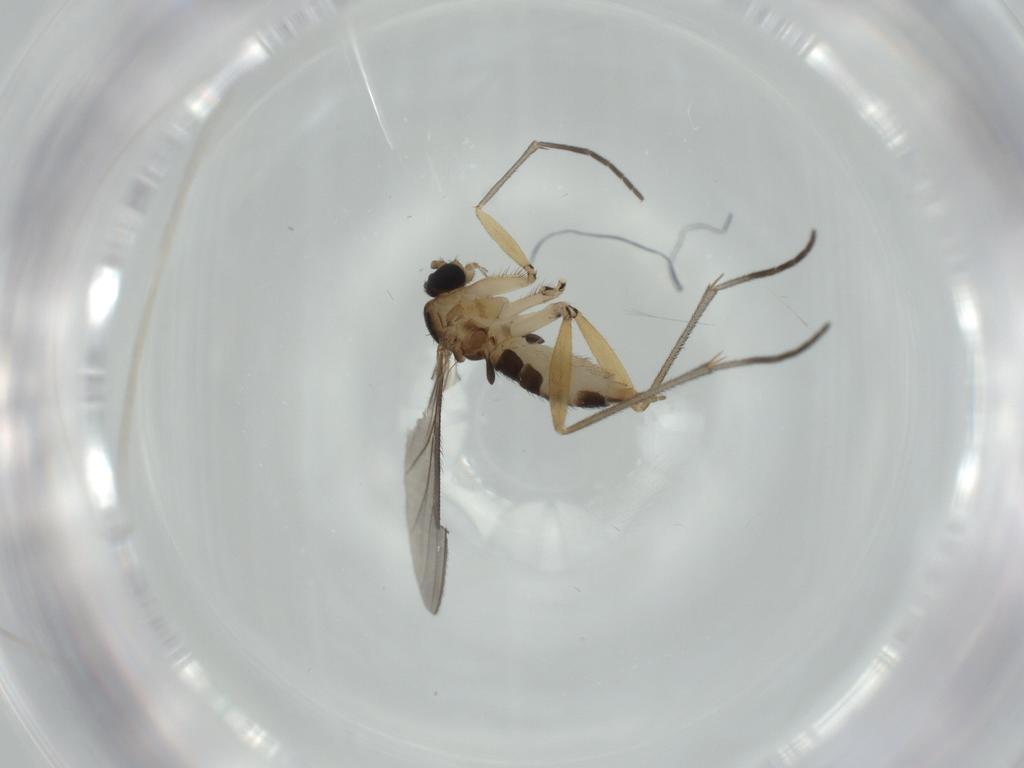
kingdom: Animalia
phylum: Arthropoda
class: Insecta
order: Diptera
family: Sciaridae
